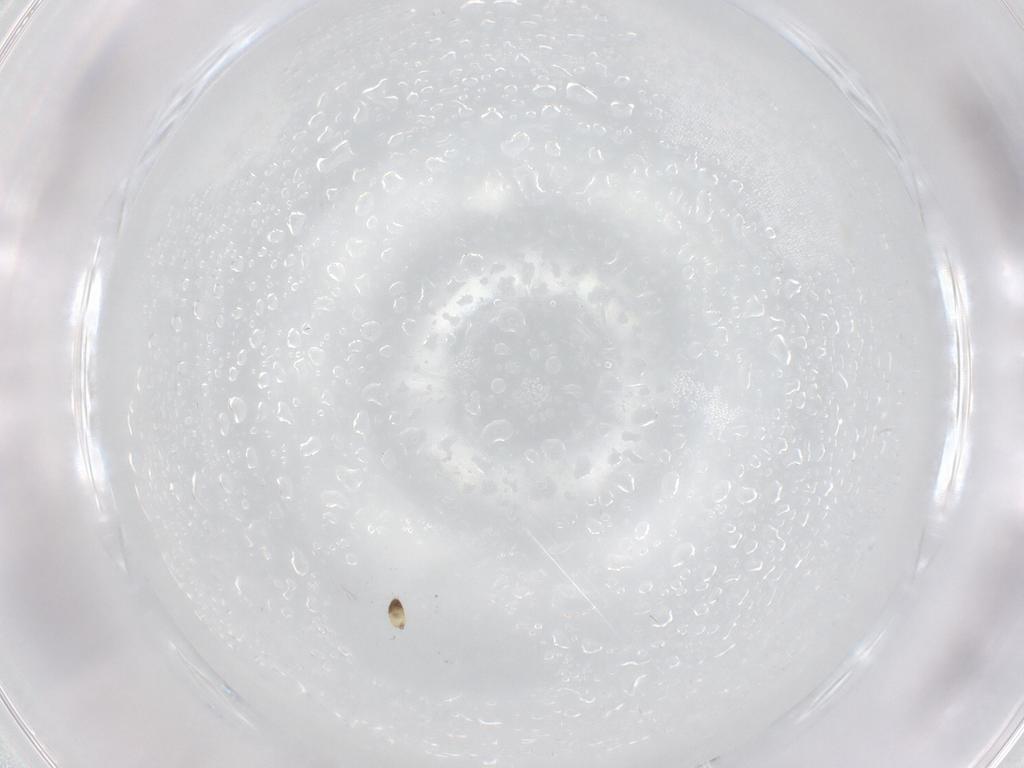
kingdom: Animalia
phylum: Arthropoda
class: Insecta
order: Hymenoptera
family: Mymaridae
